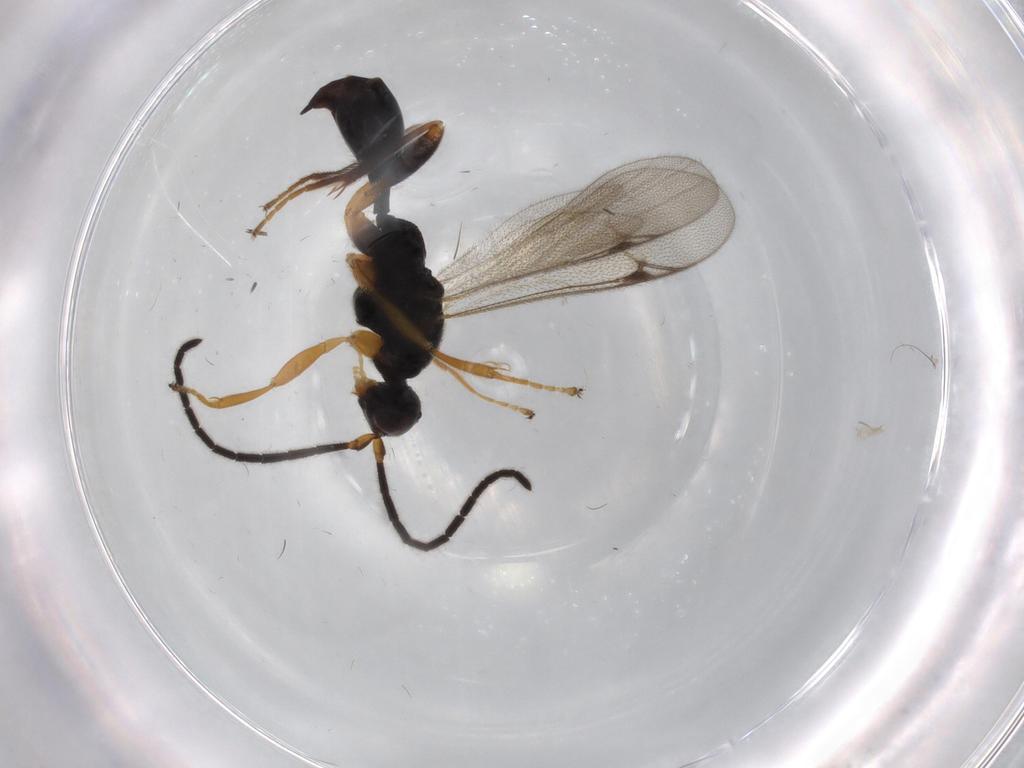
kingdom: Animalia
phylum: Arthropoda
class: Insecta
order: Hymenoptera
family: Proctotrupidae
